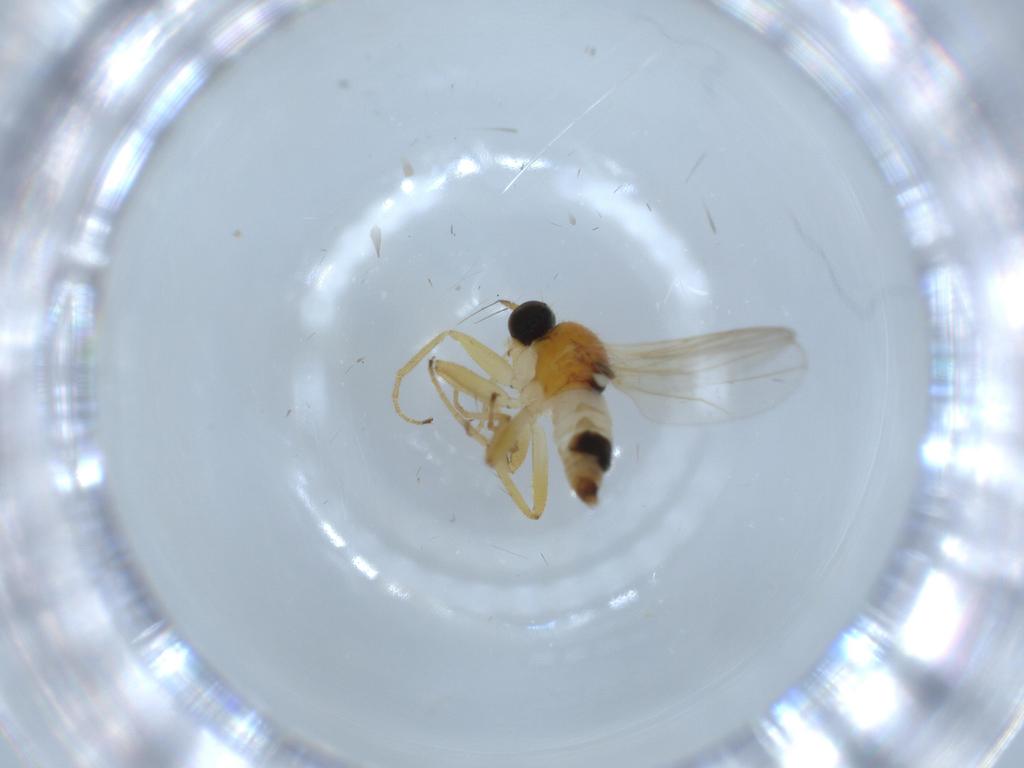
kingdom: Animalia
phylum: Arthropoda
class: Insecta
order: Diptera
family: Hybotidae
